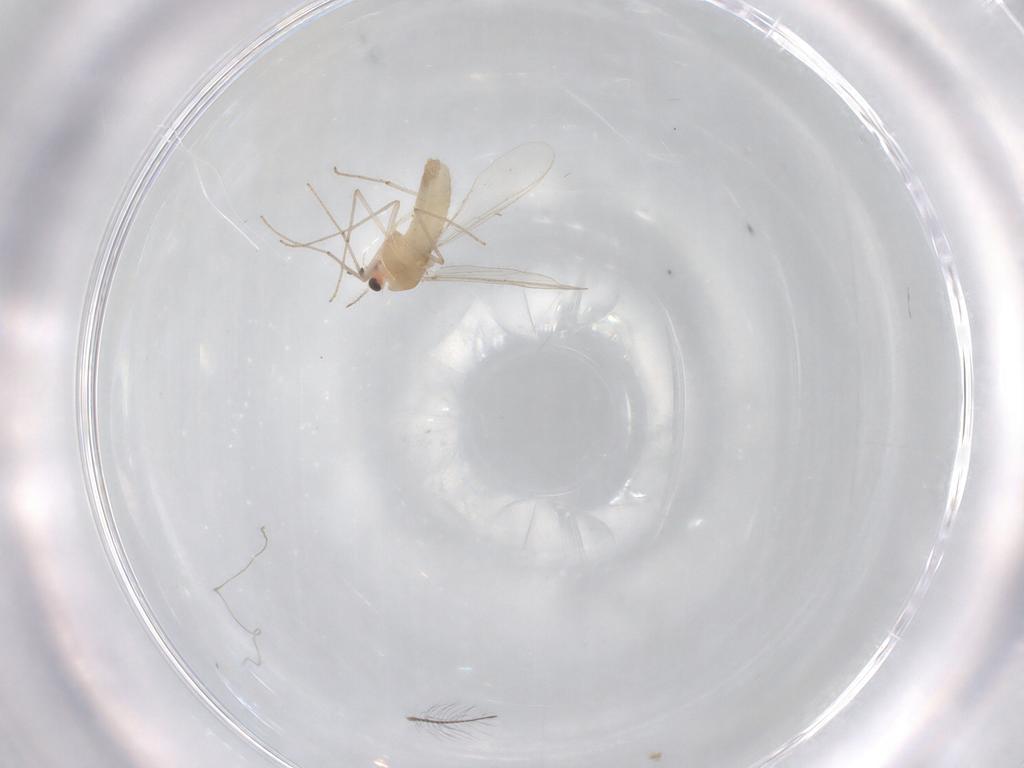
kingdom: Animalia
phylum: Arthropoda
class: Insecta
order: Diptera
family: Chironomidae
